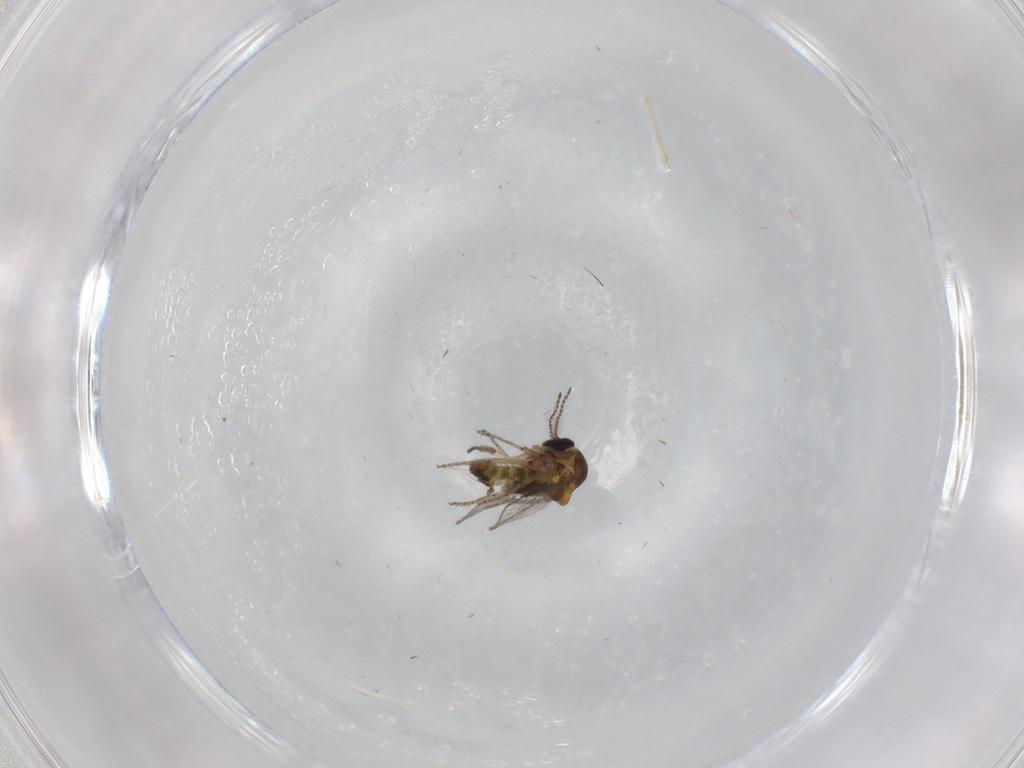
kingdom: Animalia
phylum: Arthropoda
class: Insecta
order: Diptera
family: Ceratopogonidae
